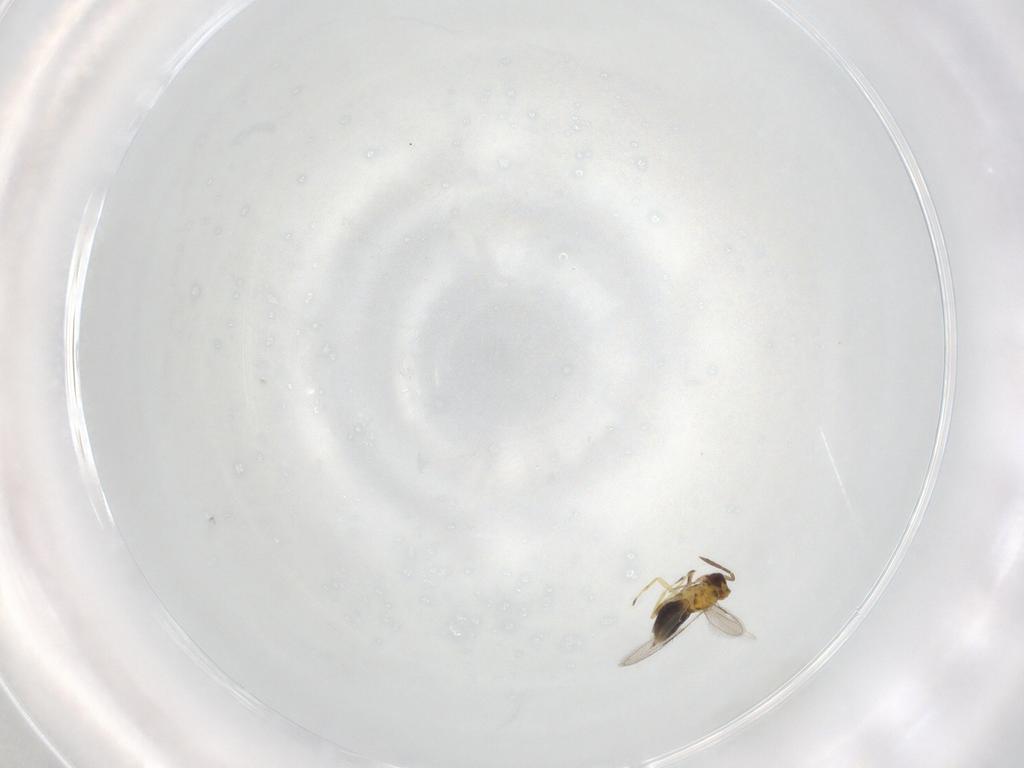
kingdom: Animalia
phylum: Arthropoda
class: Insecta
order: Hymenoptera
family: Aphelinidae
